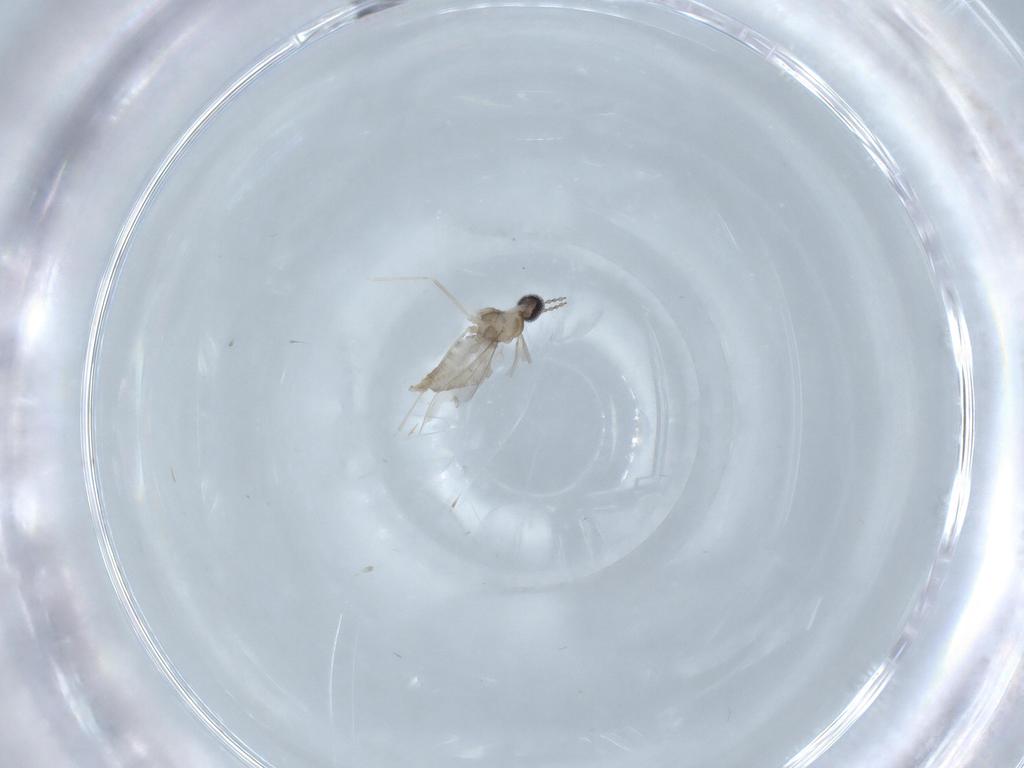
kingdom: Animalia
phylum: Arthropoda
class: Insecta
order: Diptera
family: Cecidomyiidae
